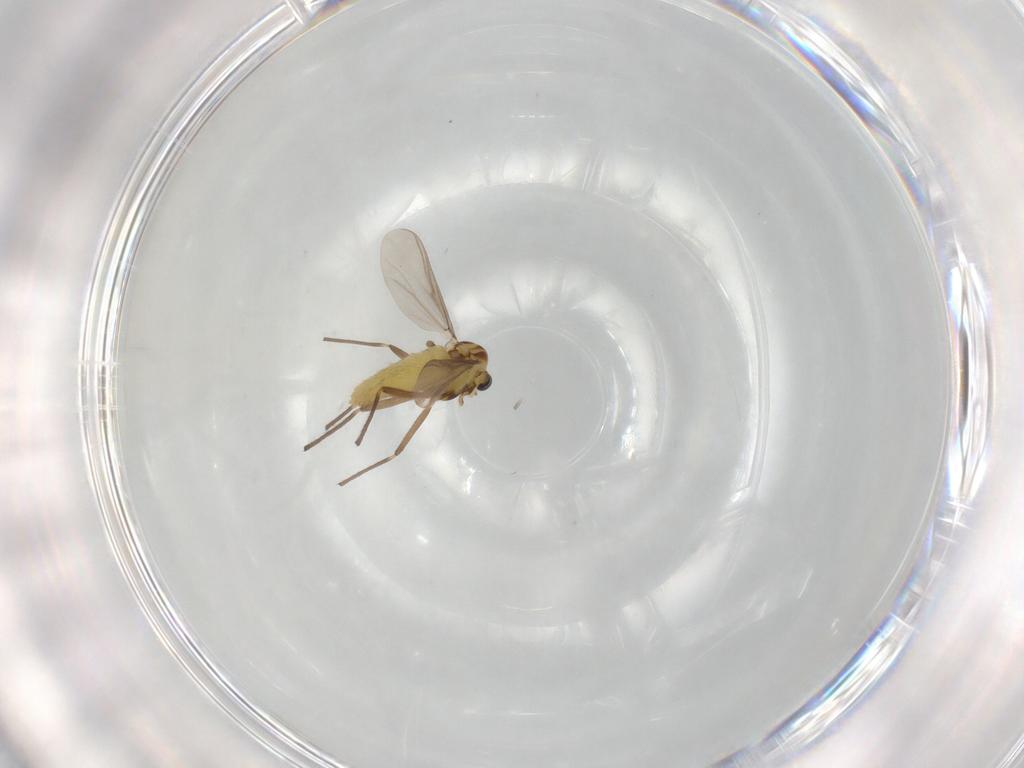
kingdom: Animalia
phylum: Arthropoda
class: Insecta
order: Diptera
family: Chironomidae
